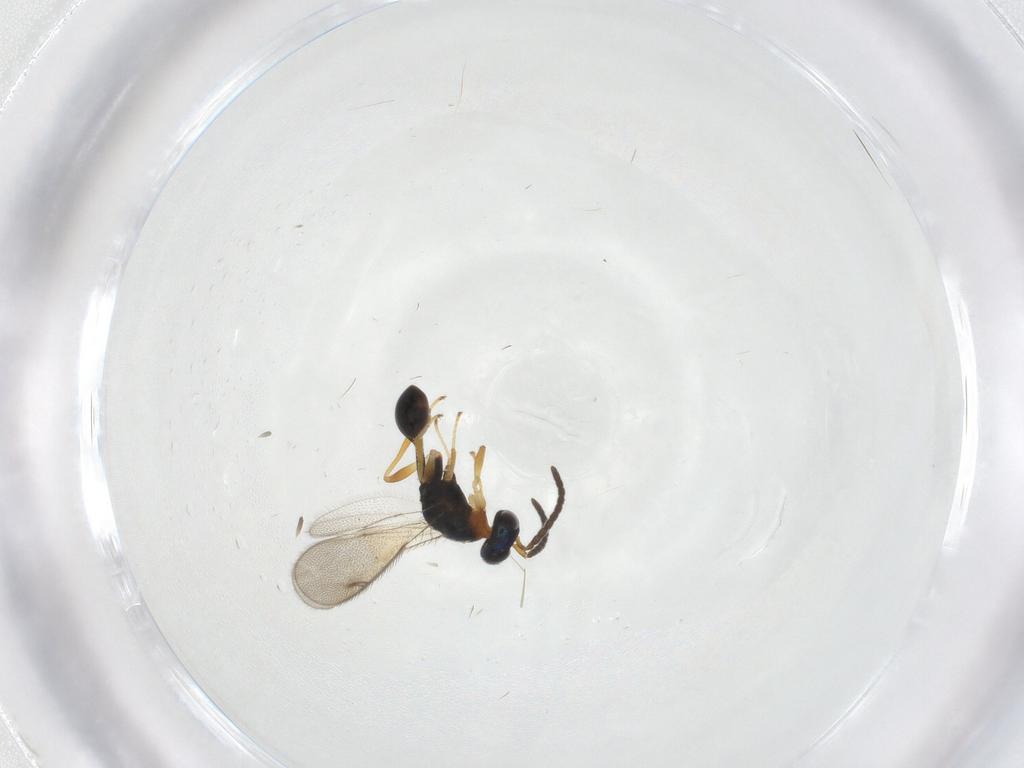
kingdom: Animalia
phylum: Arthropoda
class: Insecta
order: Hymenoptera
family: Diparidae
